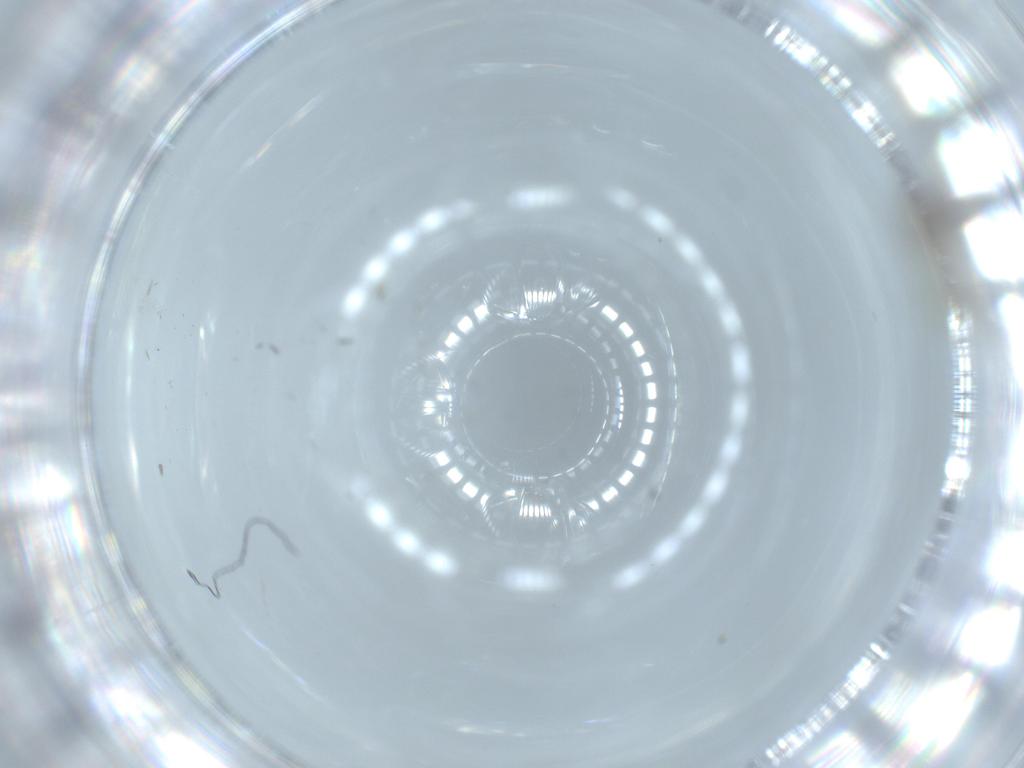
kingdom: Animalia
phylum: Arthropoda
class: Insecta
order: Diptera
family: Cecidomyiidae
